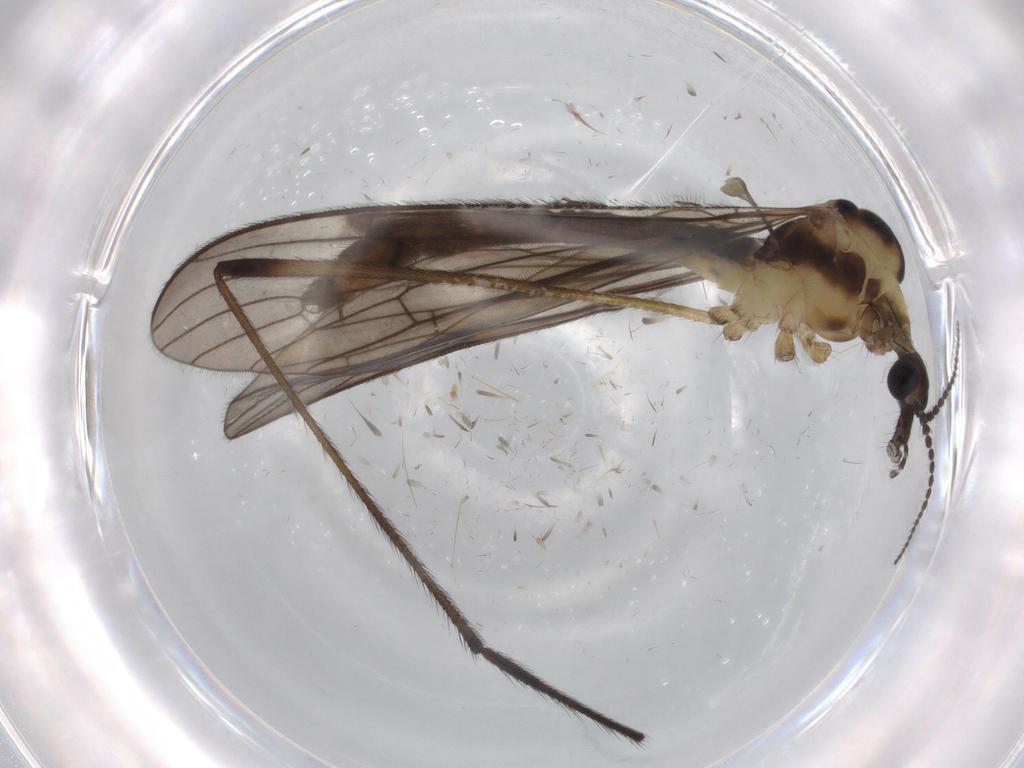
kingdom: Animalia
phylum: Arthropoda
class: Insecta
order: Diptera
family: Limoniidae
